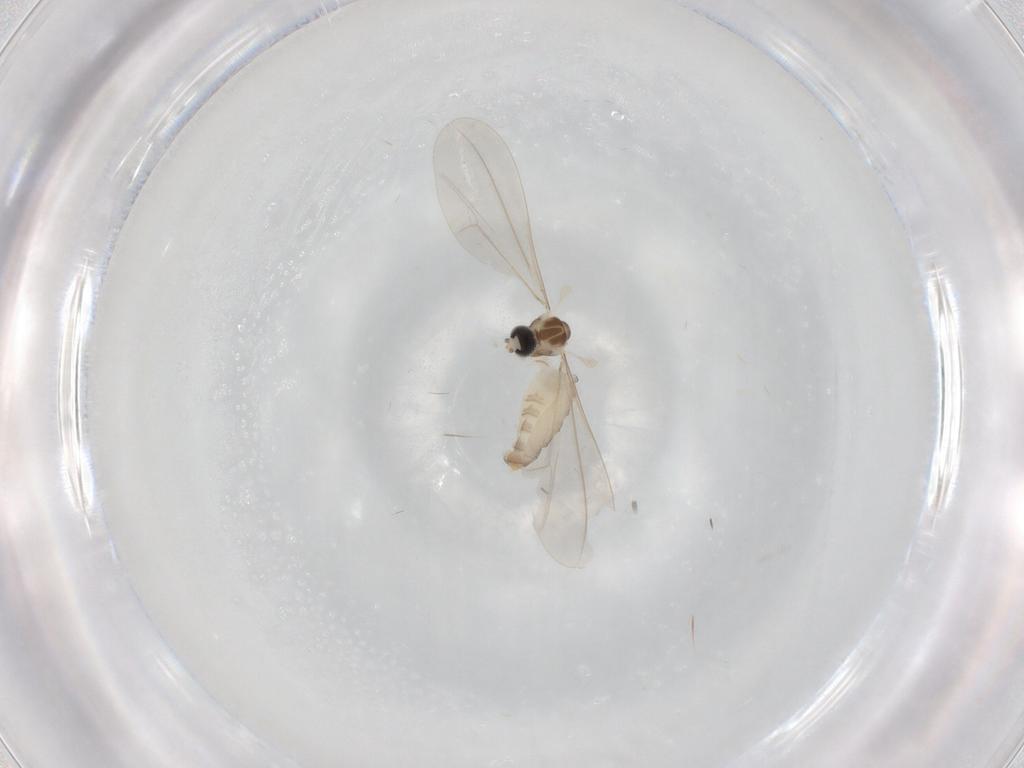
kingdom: Animalia
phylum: Arthropoda
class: Insecta
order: Diptera
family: Cecidomyiidae
